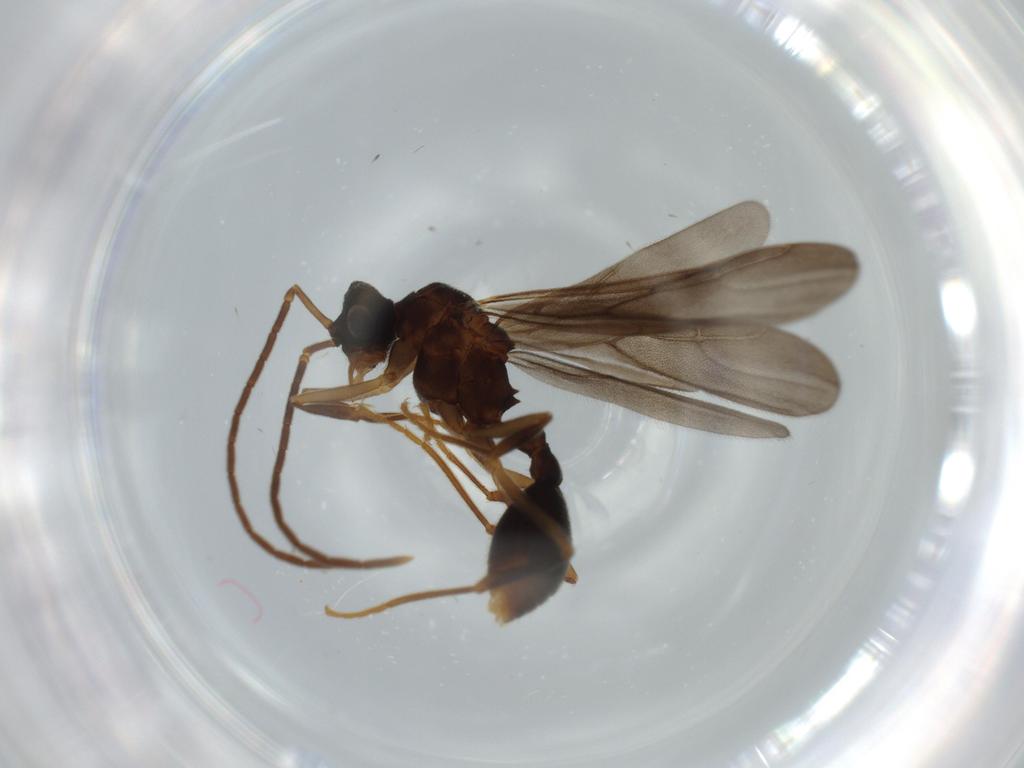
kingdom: Animalia
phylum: Arthropoda
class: Insecta
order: Hymenoptera
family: Formicidae
